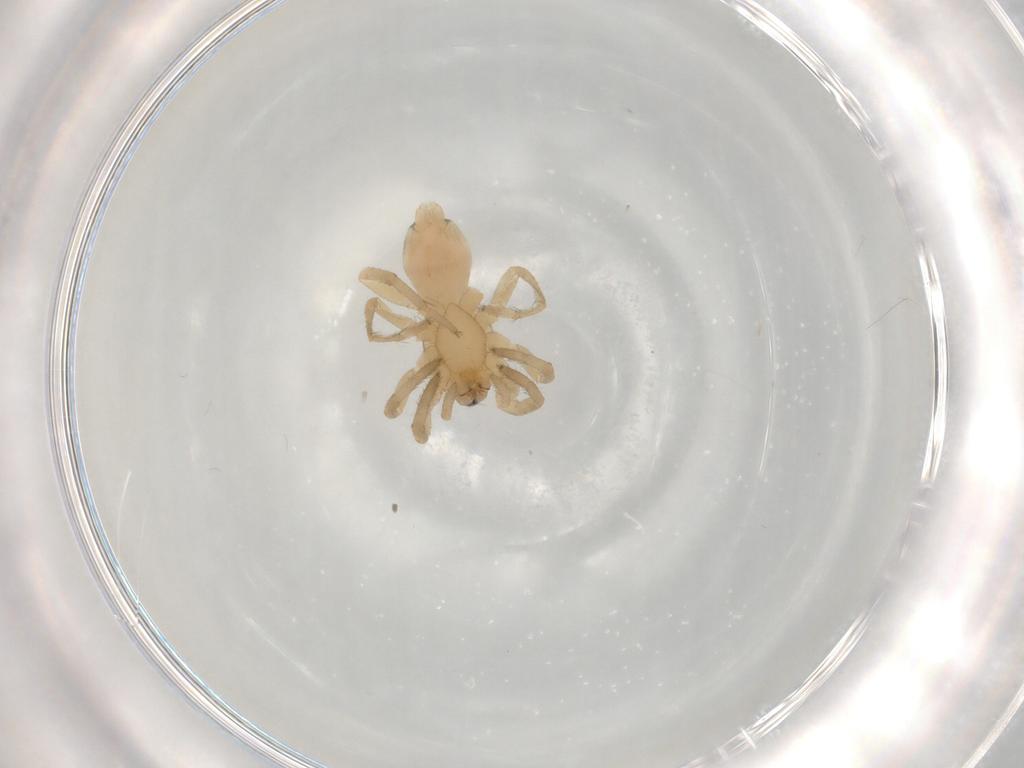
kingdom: Animalia
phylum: Arthropoda
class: Arachnida
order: Araneae
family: Gnaphosidae
